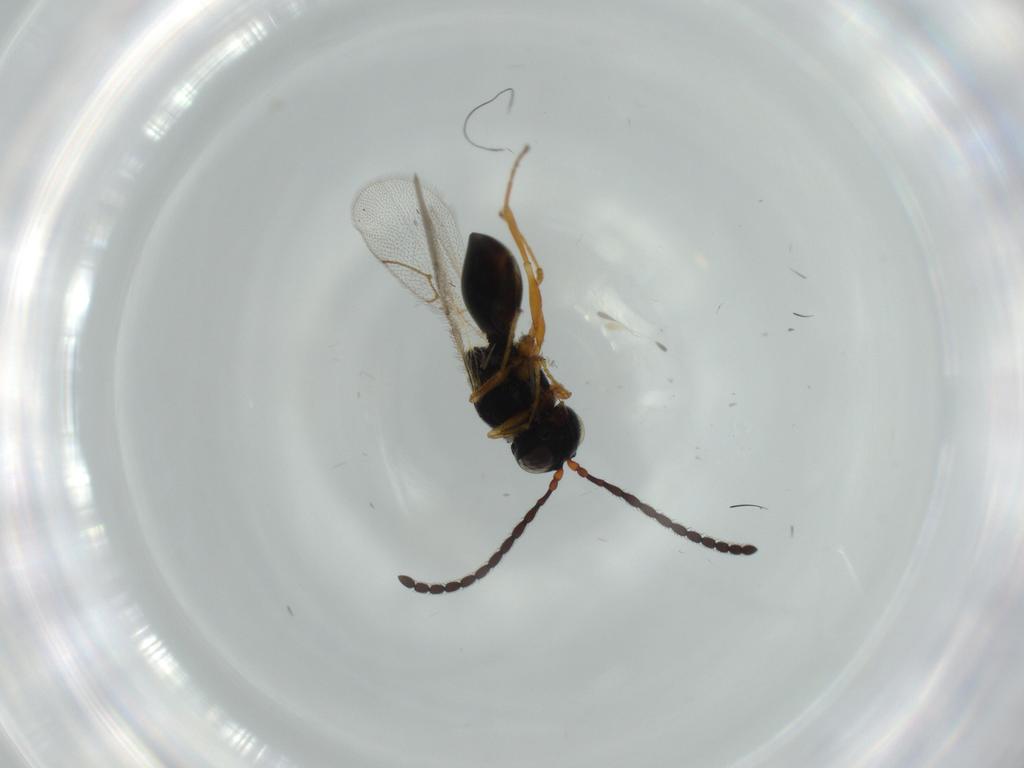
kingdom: Animalia
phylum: Arthropoda
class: Insecta
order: Hymenoptera
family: Figitidae
